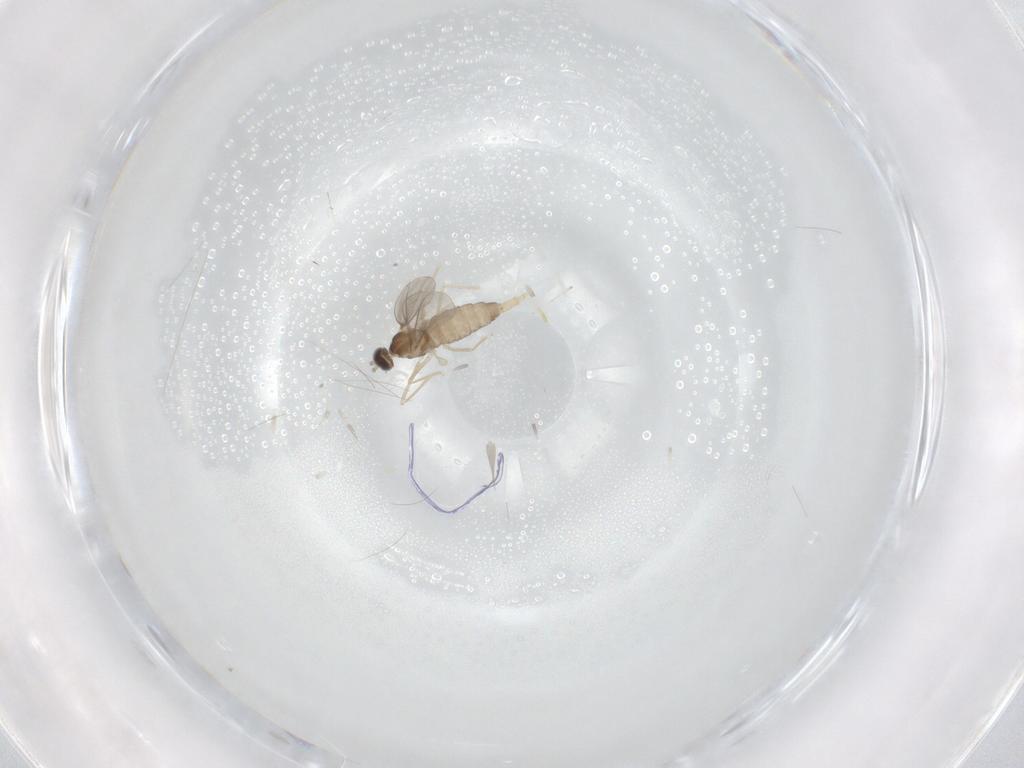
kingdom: Animalia
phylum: Arthropoda
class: Insecta
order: Diptera
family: Cecidomyiidae
